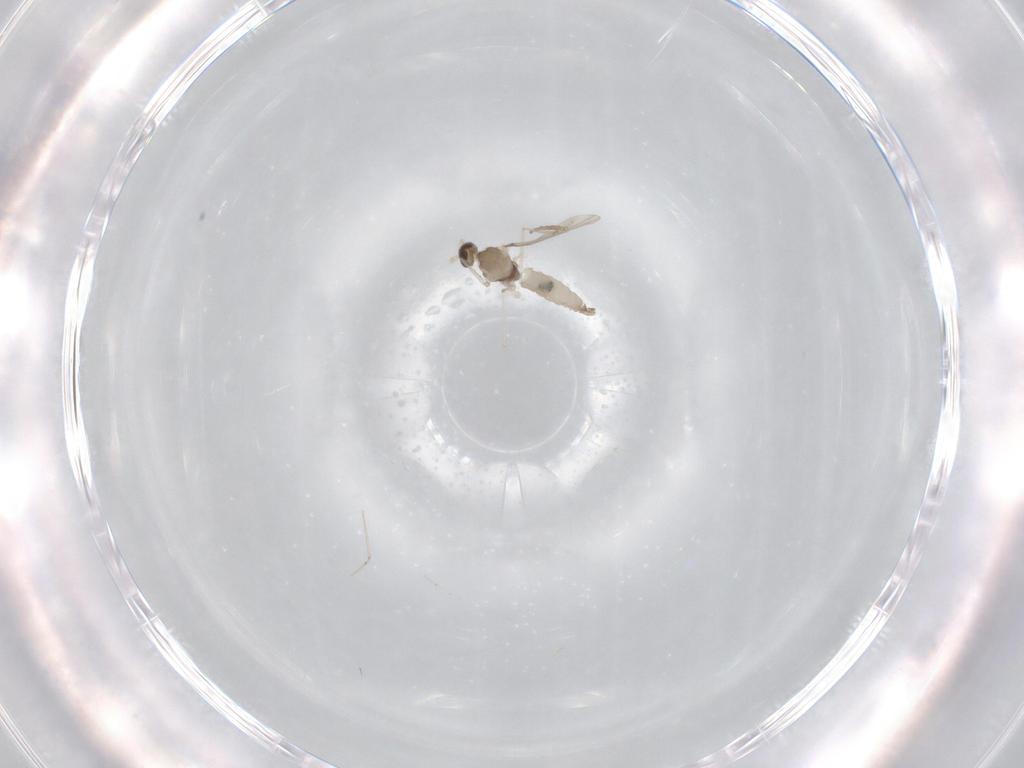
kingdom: Animalia
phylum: Arthropoda
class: Insecta
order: Diptera
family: Cecidomyiidae
